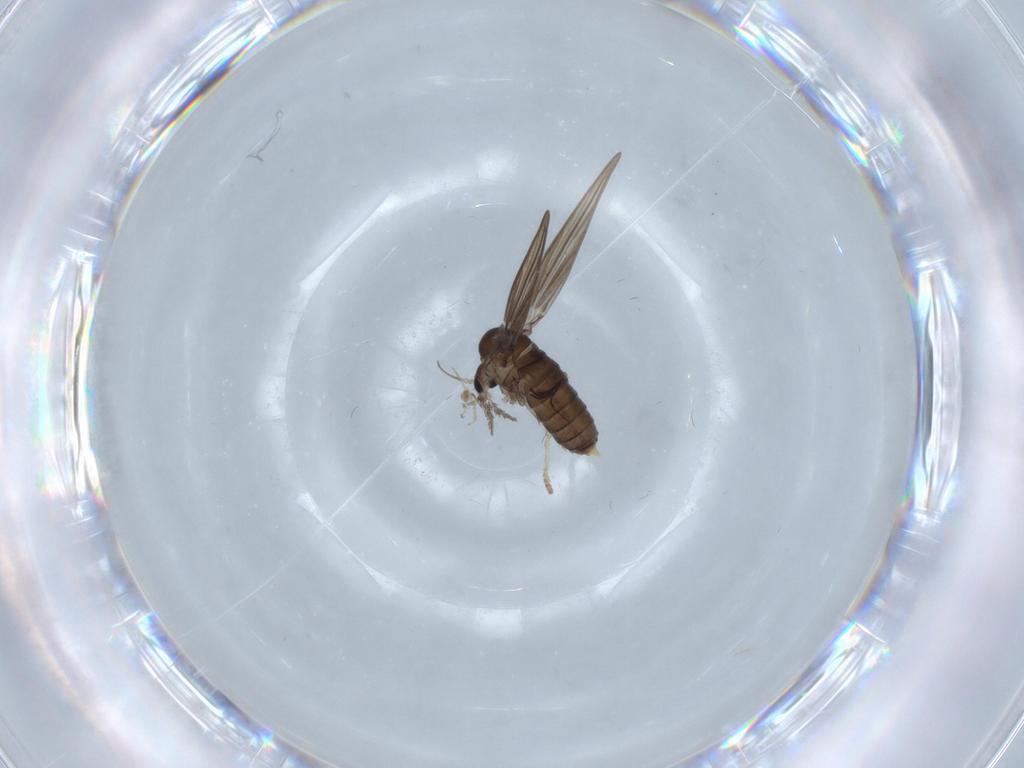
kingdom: Animalia
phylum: Arthropoda
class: Insecta
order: Diptera
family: Psychodidae
